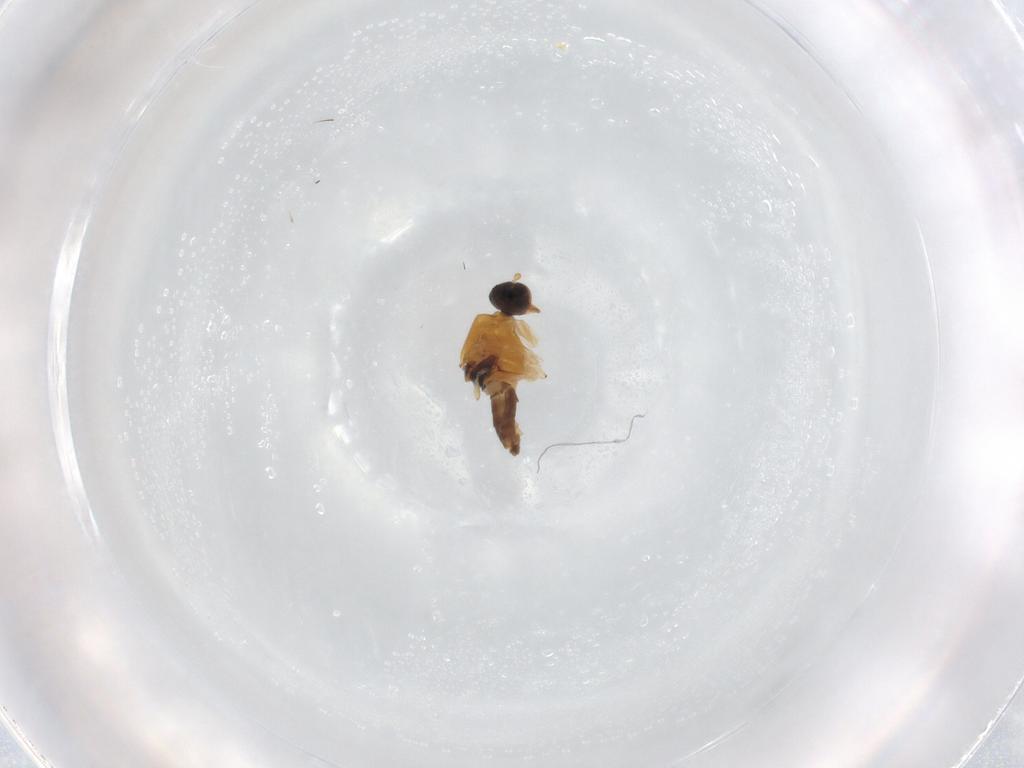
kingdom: Animalia
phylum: Arthropoda
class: Insecta
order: Diptera
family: Hybotidae
